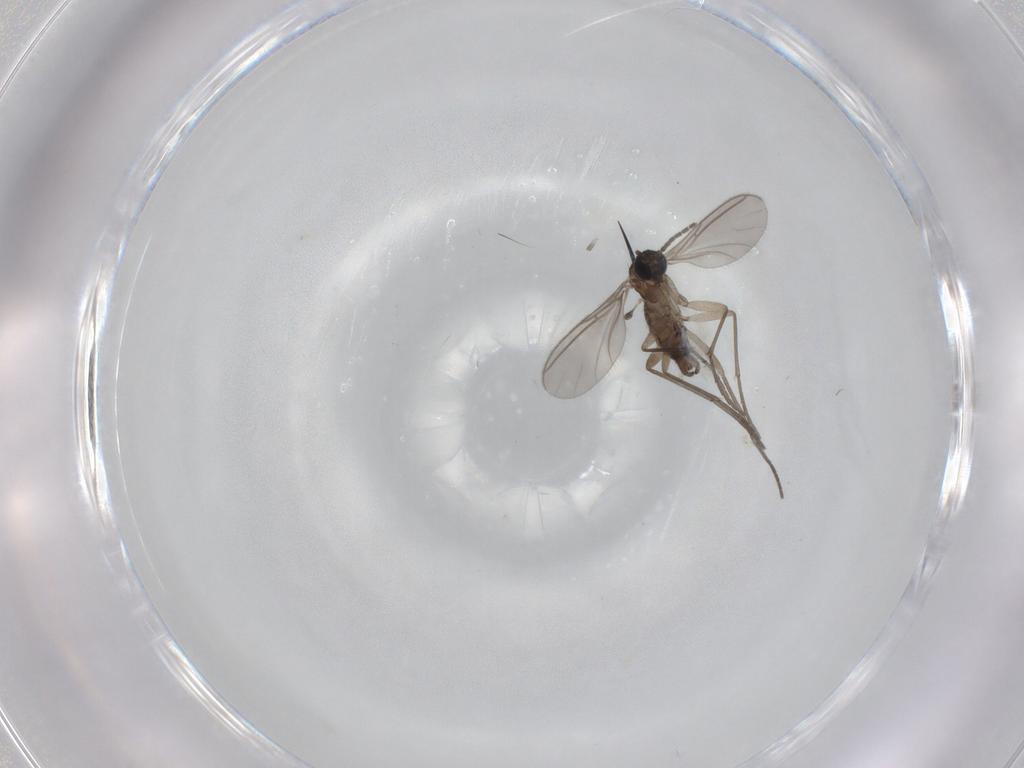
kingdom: Animalia
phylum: Arthropoda
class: Insecta
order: Diptera
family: Sciaridae
